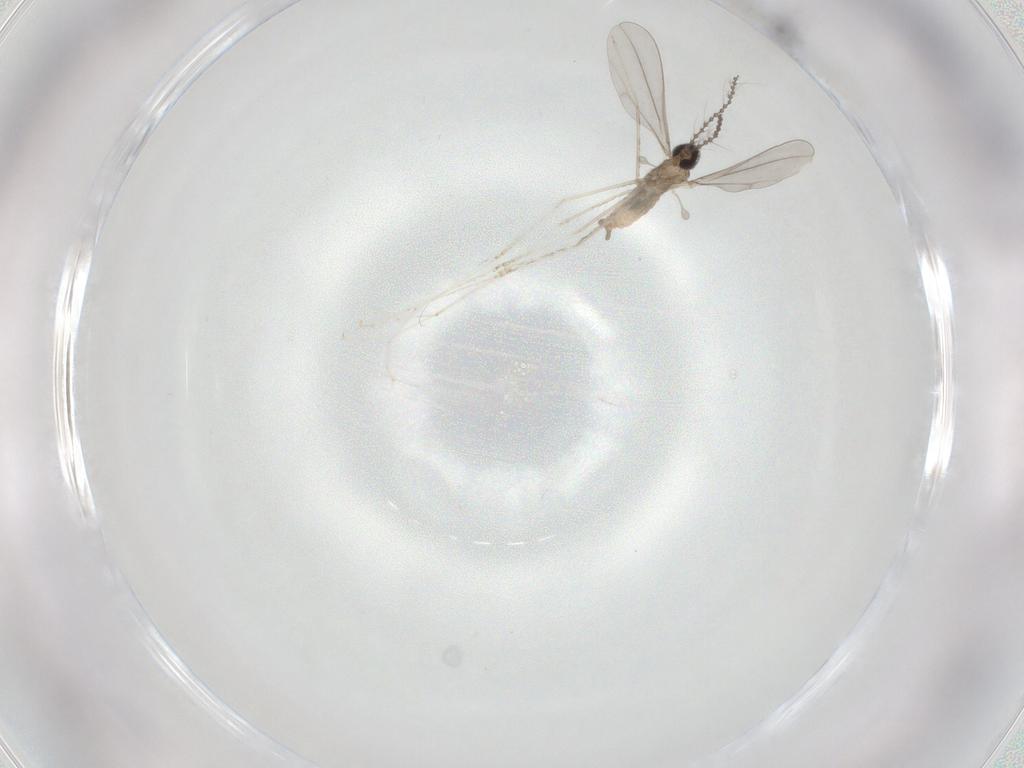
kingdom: Animalia
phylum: Arthropoda
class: Insecta
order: Diptera
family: Cecidomyiidae
